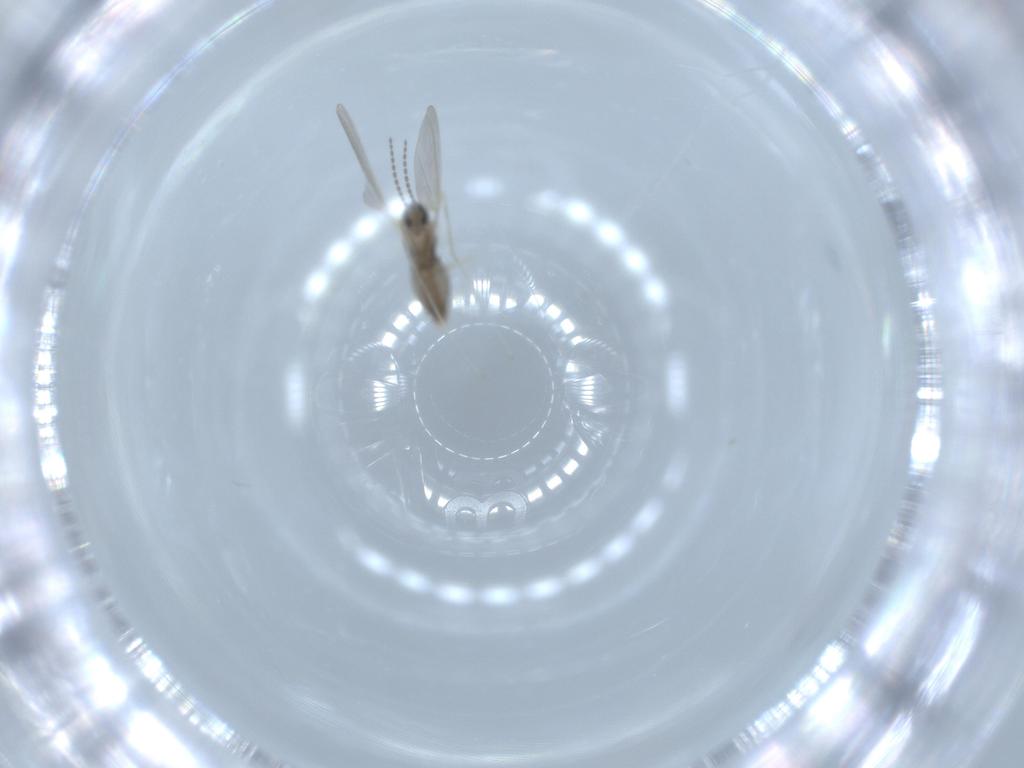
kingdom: Animalia
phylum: Arthropoda
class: Insecta
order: Diptera
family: Cecidomyiidae
